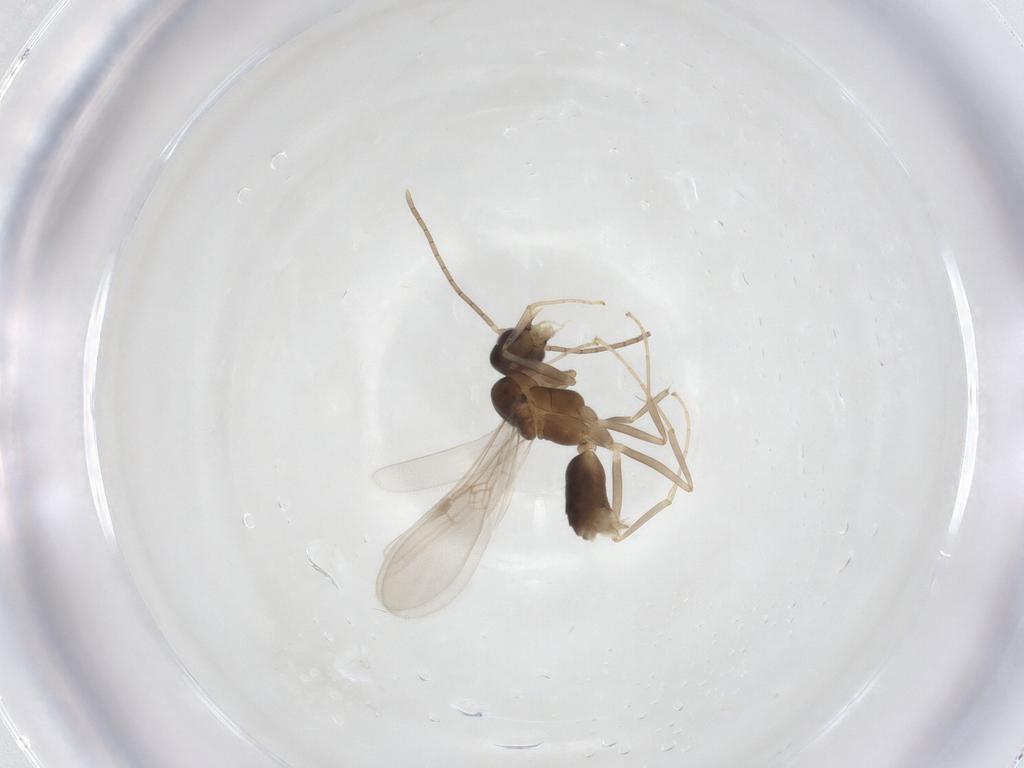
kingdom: Animalia
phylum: Arthropoda
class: Insecta
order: Hymenoptera
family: Formicidae
